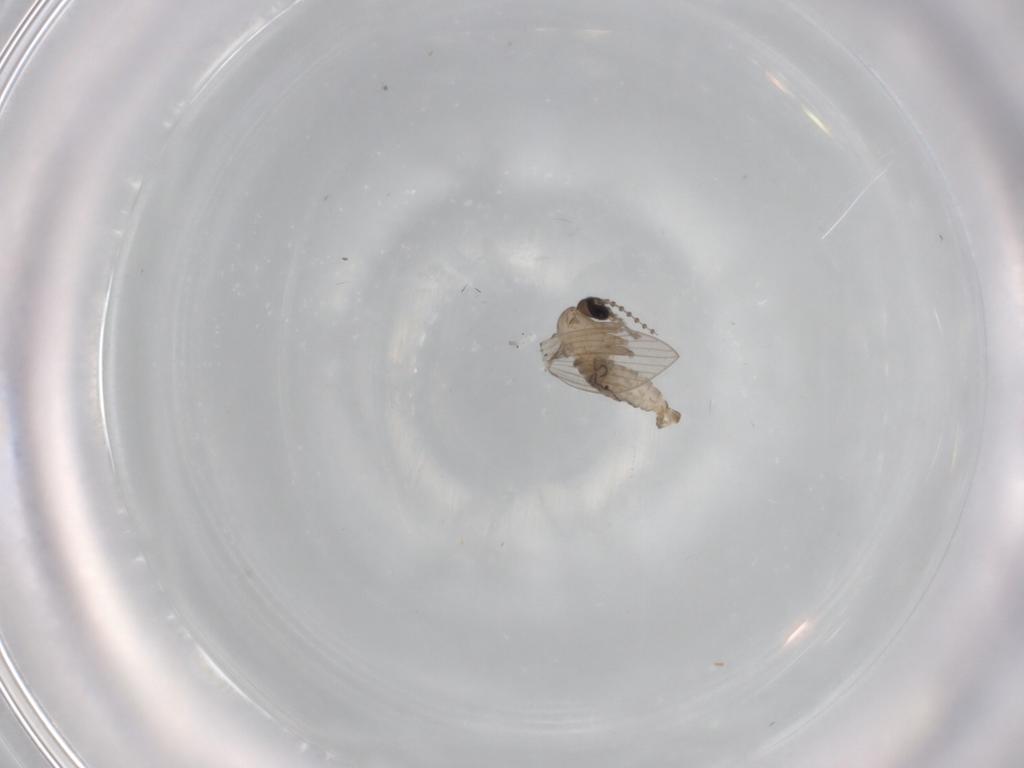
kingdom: Animalia
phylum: Arthropoda
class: Insecta
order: Diptera
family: Psychodidae
